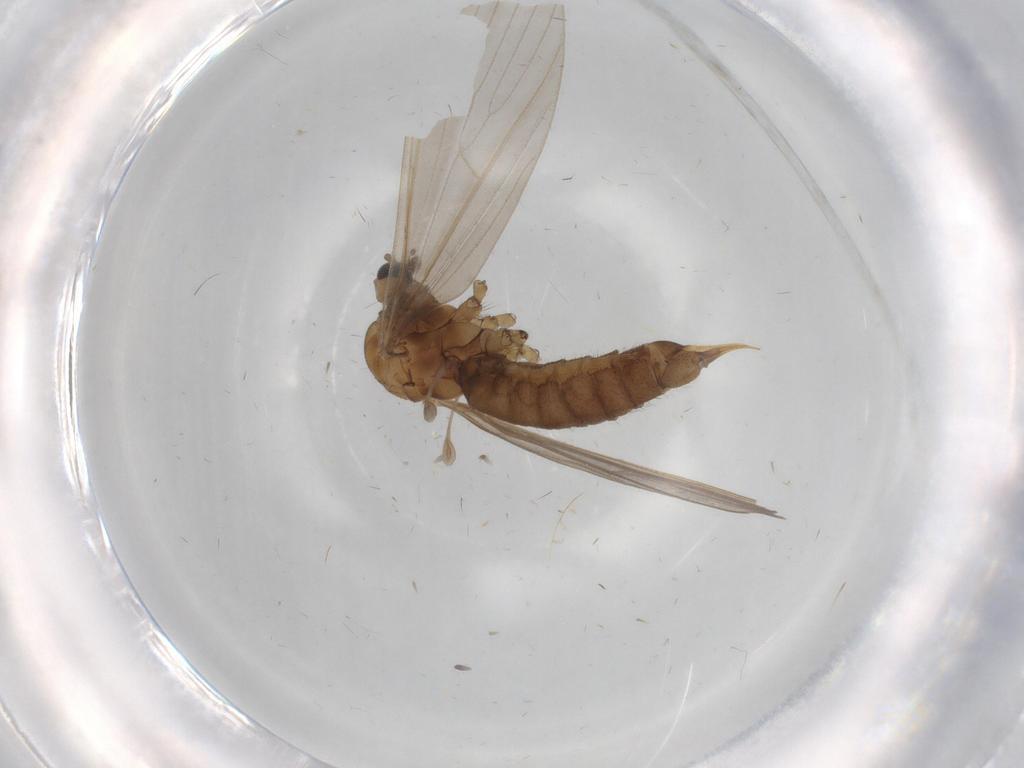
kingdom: Animalia
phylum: Arthropoda
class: Insecta
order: Diptera
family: Limoniidae
